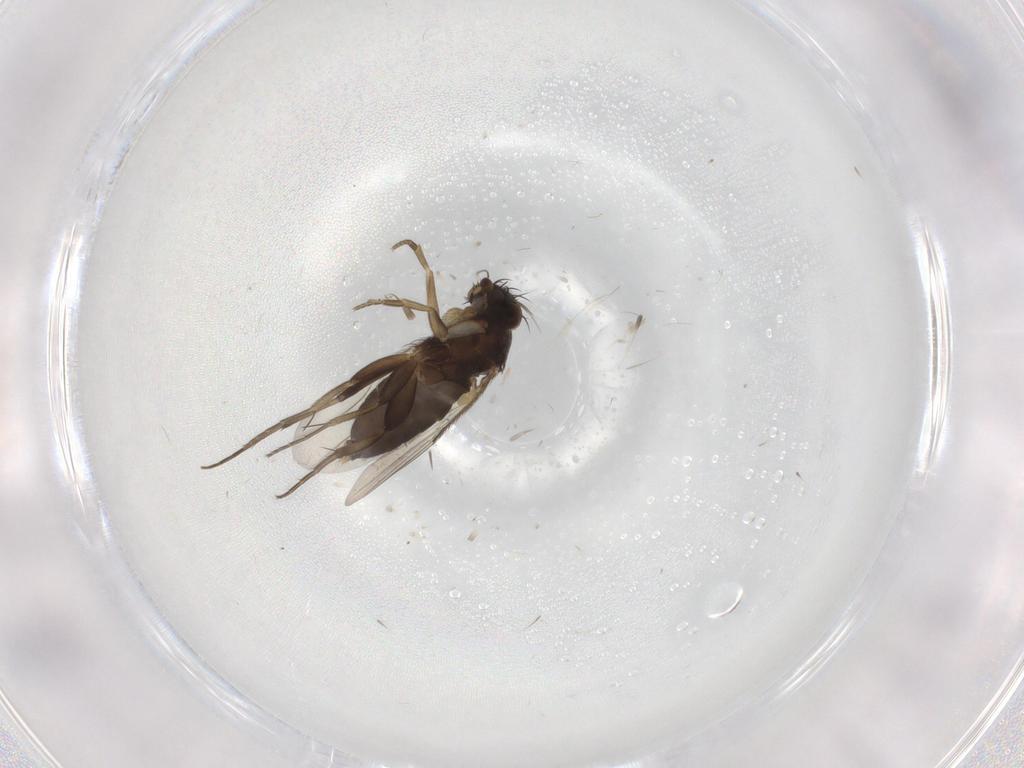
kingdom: Animalia
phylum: Arthropoda
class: Insecta
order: Diptera
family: Phoridae
